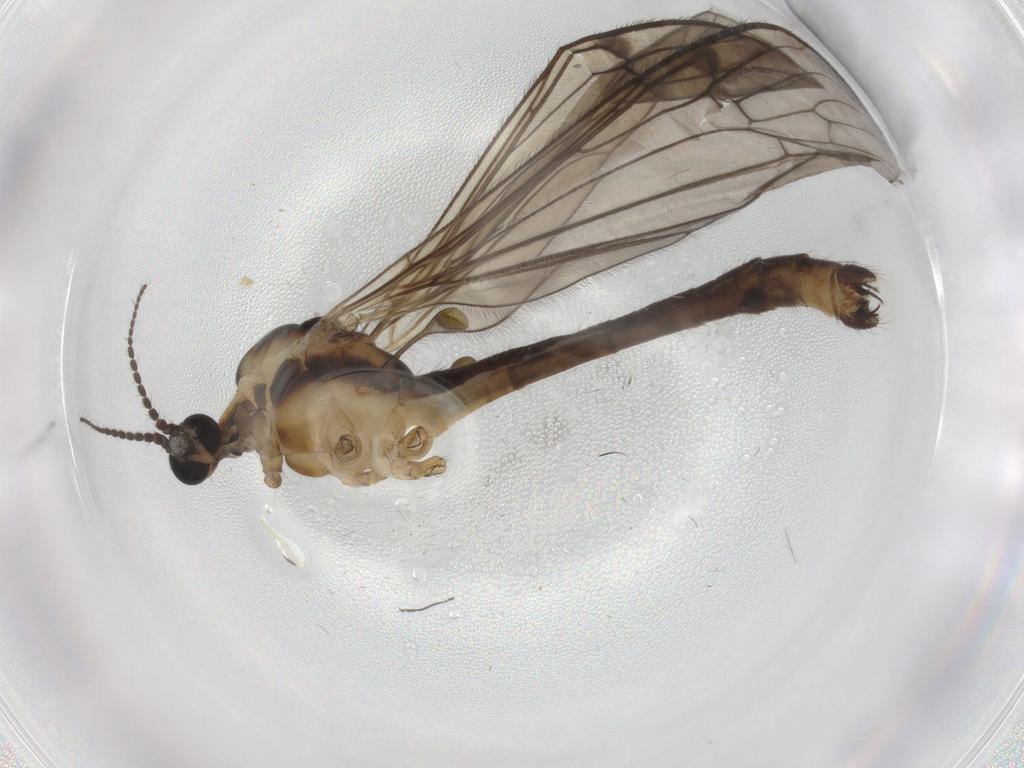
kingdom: Animalia
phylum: Arthropoda
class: Insecta
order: Diptera
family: Limoniidae
